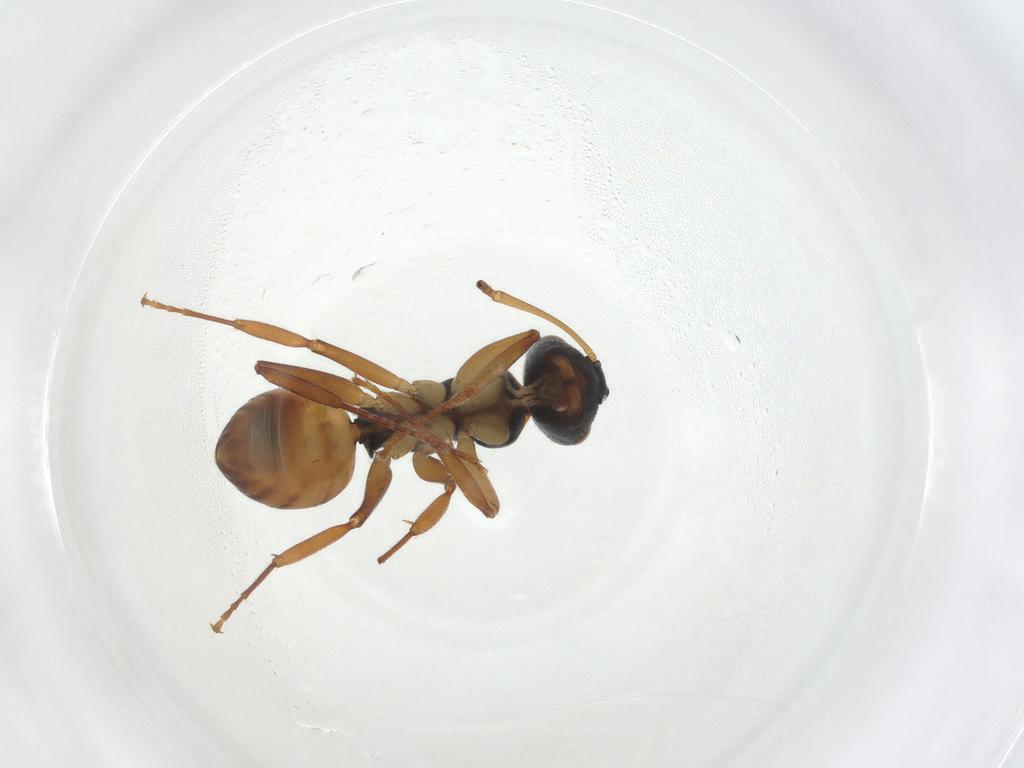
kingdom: Animalia
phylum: Arthropoda
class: Insecta
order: Hymenoptera
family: Formicidae
